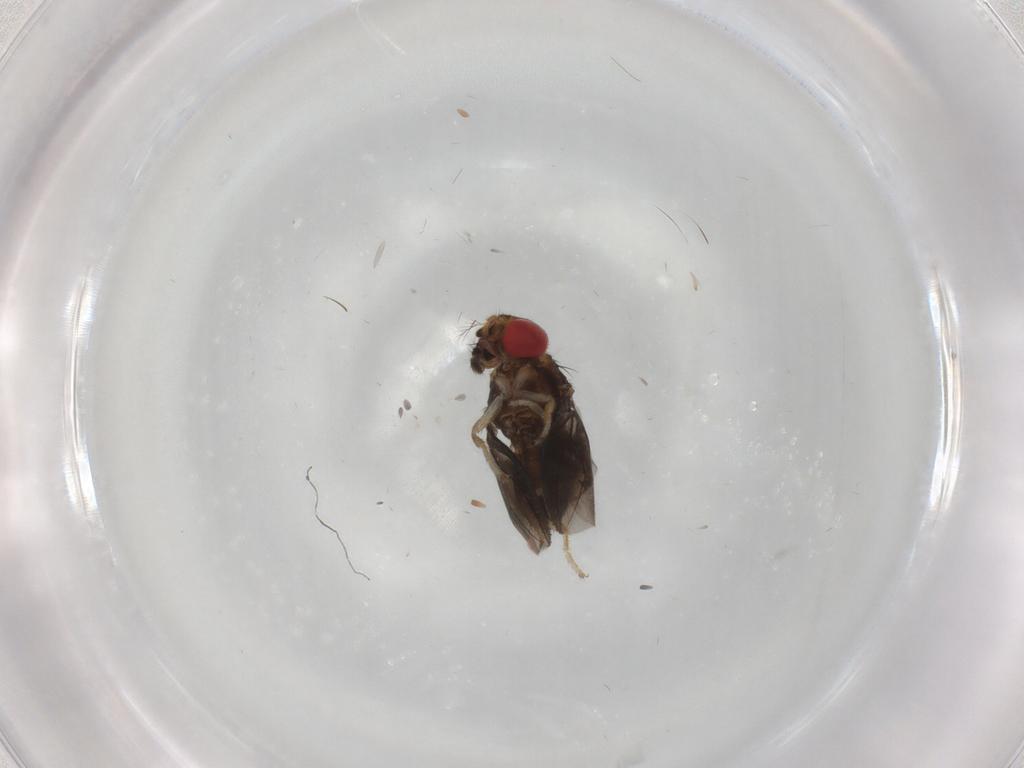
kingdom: Animalia
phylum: Arthropoda
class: Insecta
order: Diptera
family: Drosophilidae
